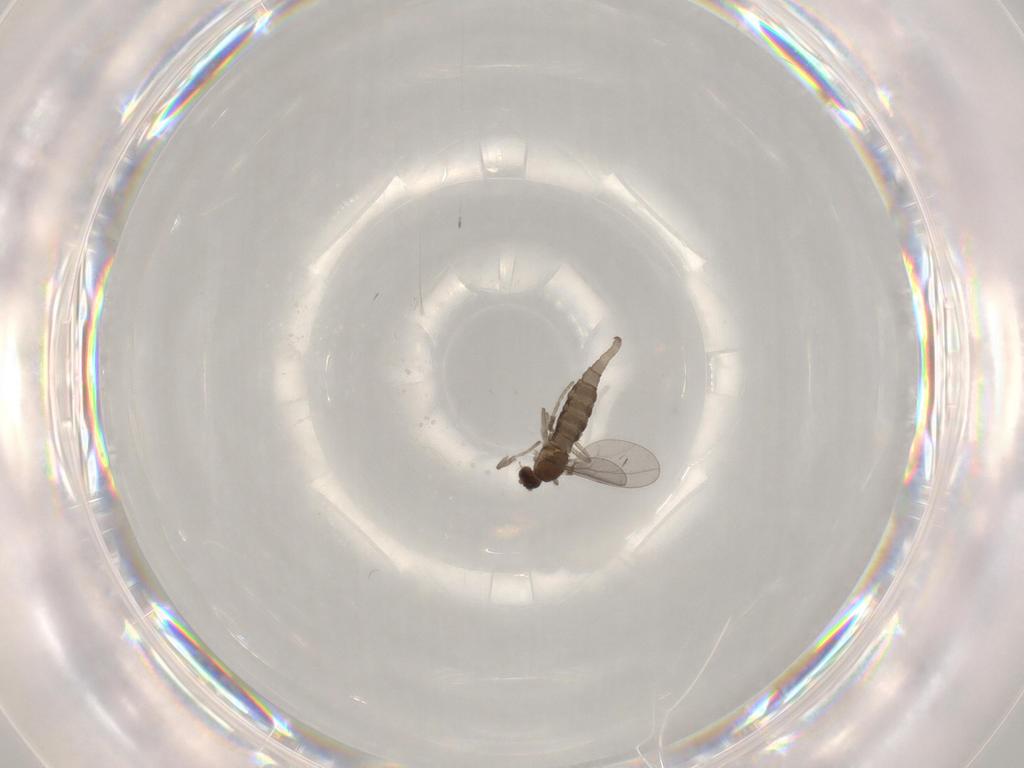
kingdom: Animalia
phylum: Arthropoda
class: Insecta
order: Diptera
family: Cecidomyiidae
